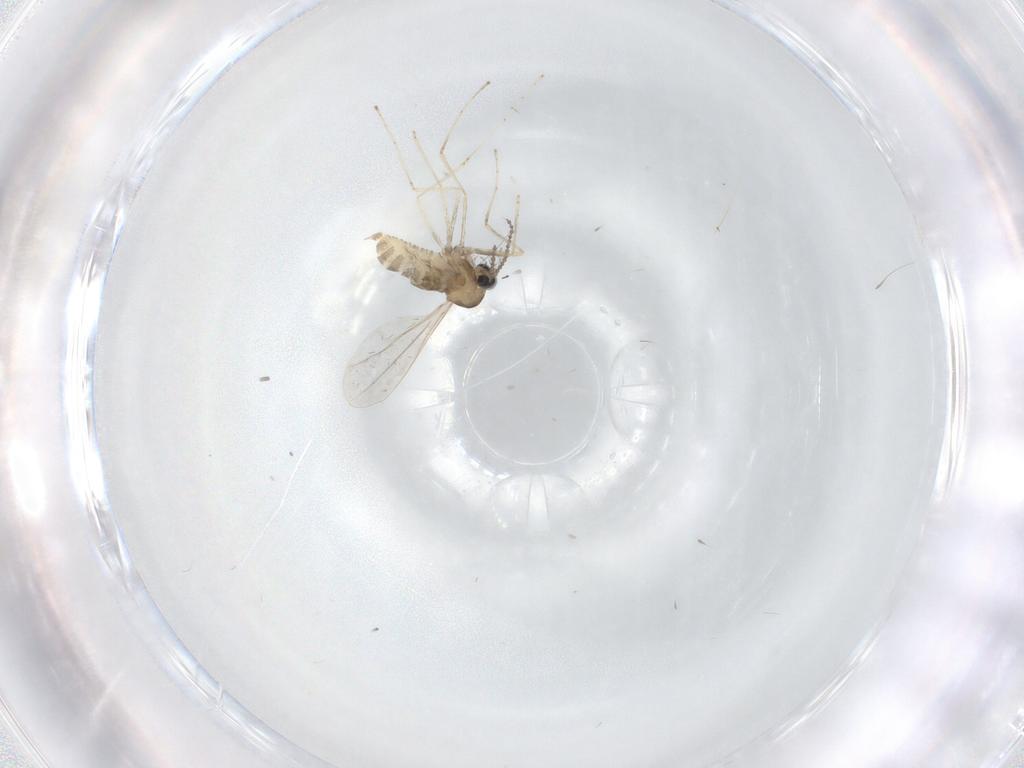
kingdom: Animalia
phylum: Arthropoda
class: Insecta
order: Diptera
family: Cecidomyiidae
